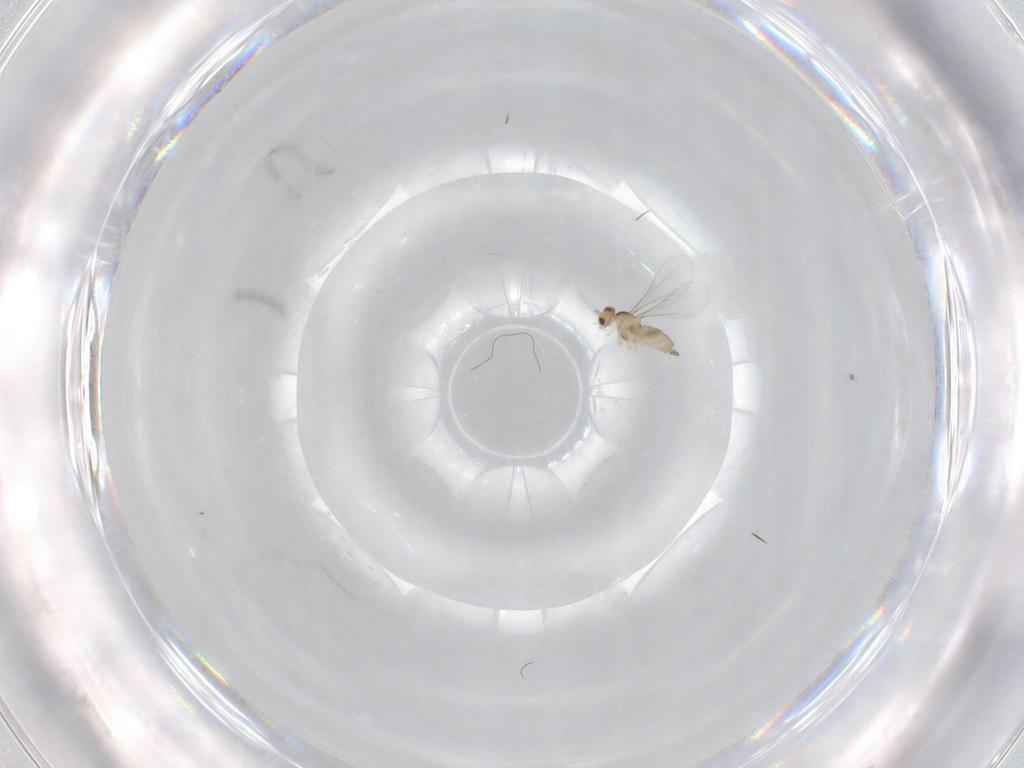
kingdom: Animalia
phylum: Arthropoda
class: Insecta
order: Diptera
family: Cecidomyiidae
